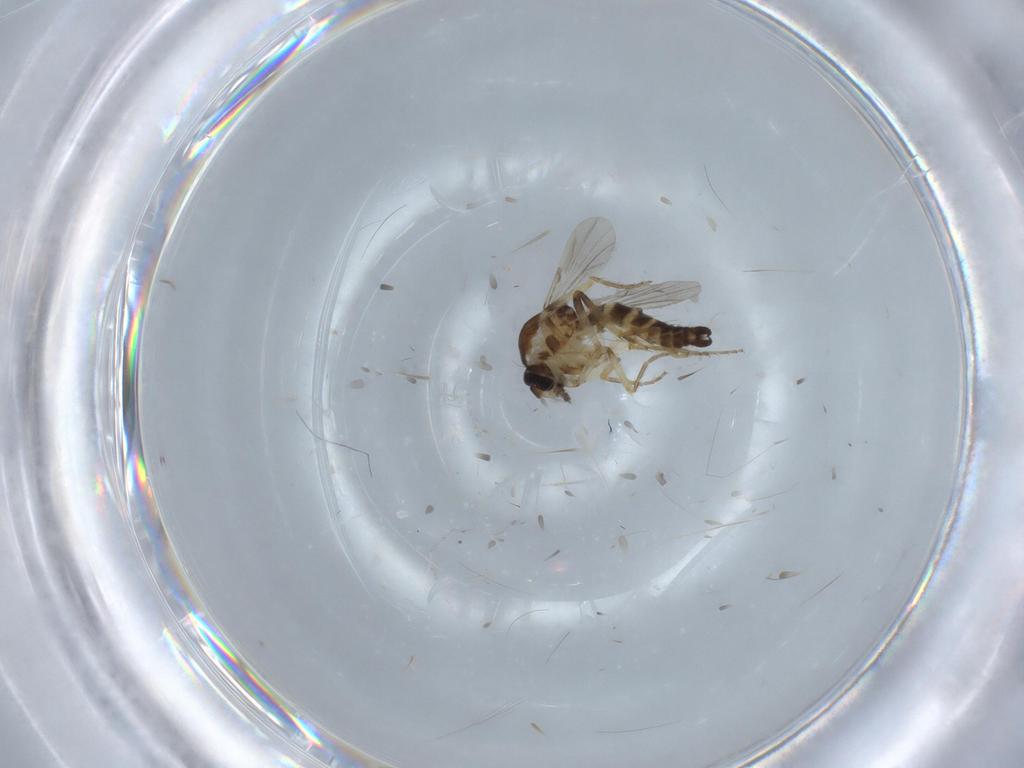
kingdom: Animalia
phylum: Arthropoda
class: Insecta
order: Diptera
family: Ceratopogonidae
